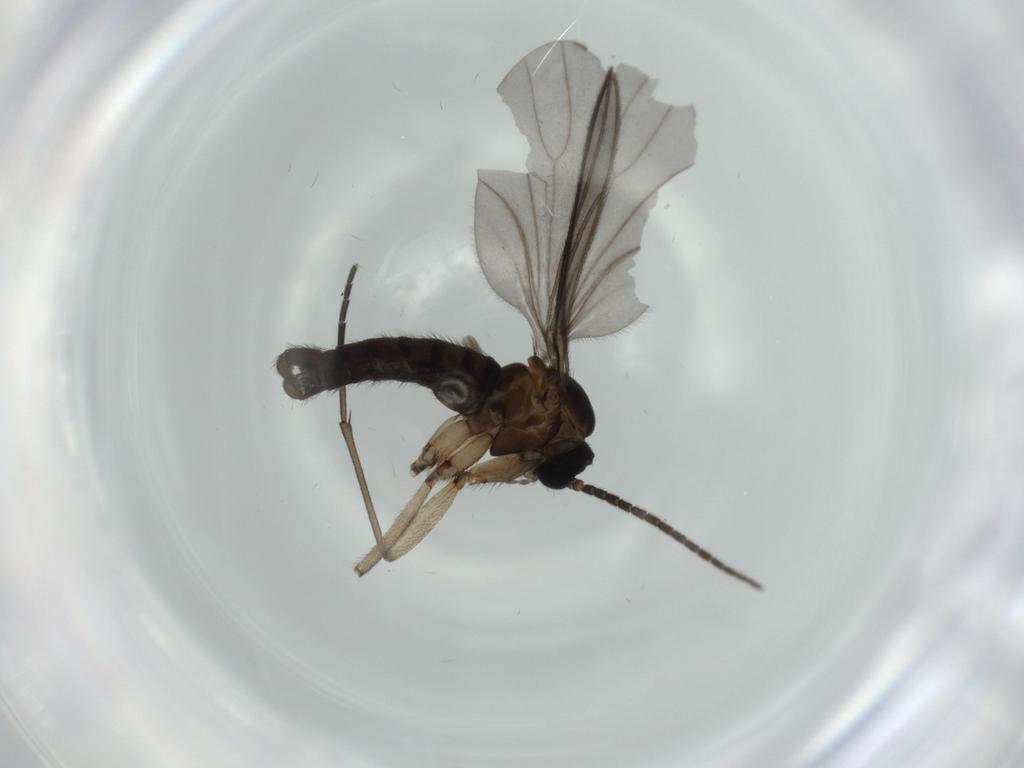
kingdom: Animalia
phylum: Arthropoda
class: Insecta
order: Diptera
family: Sciaridae
